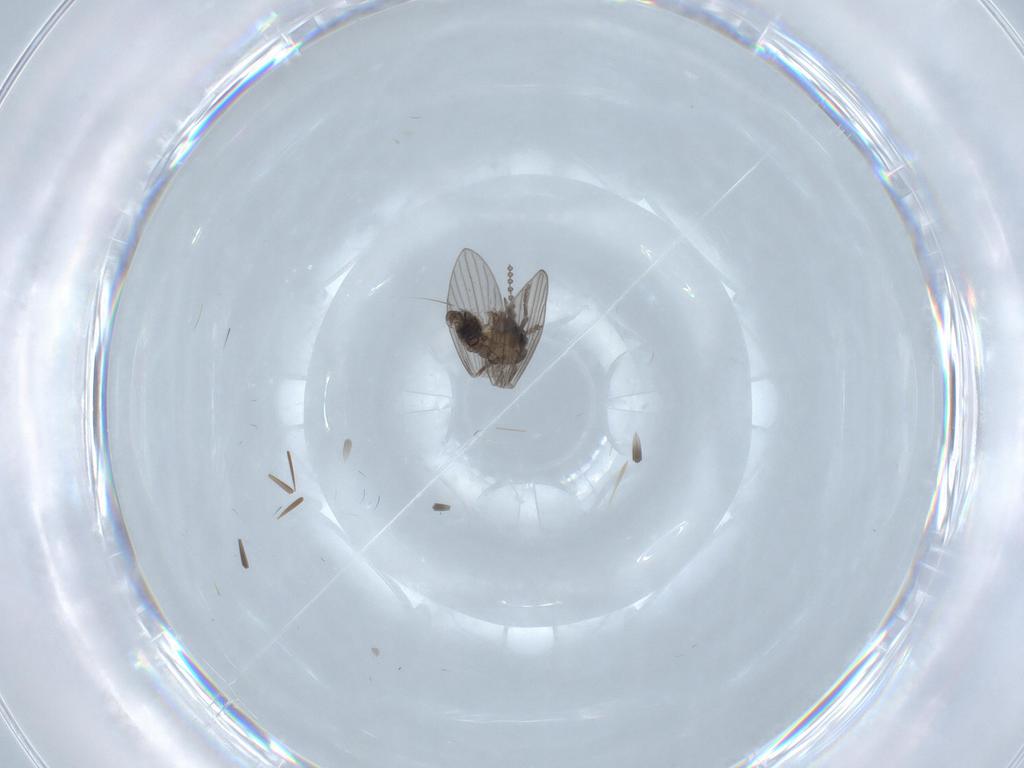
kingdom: Animalia
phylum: Arthropoda
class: Insecta
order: Diptera
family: Psychodidae
